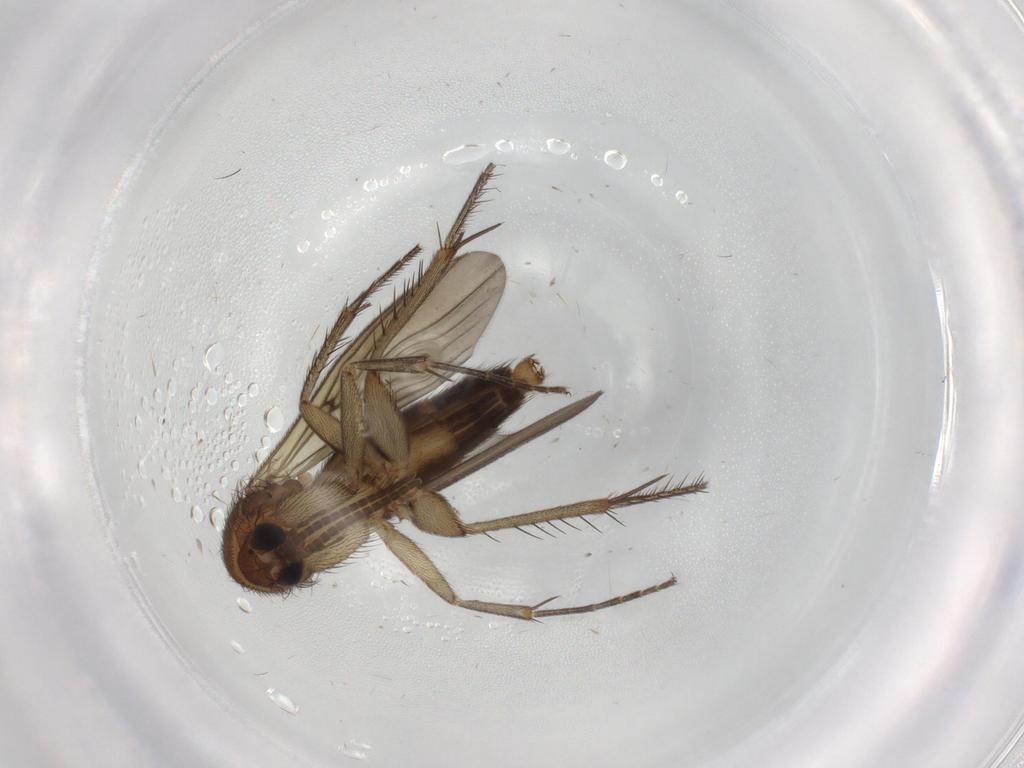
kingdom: Animalia
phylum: Arthropoda
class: Insecta
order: Diptera
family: Mycetophilidae
